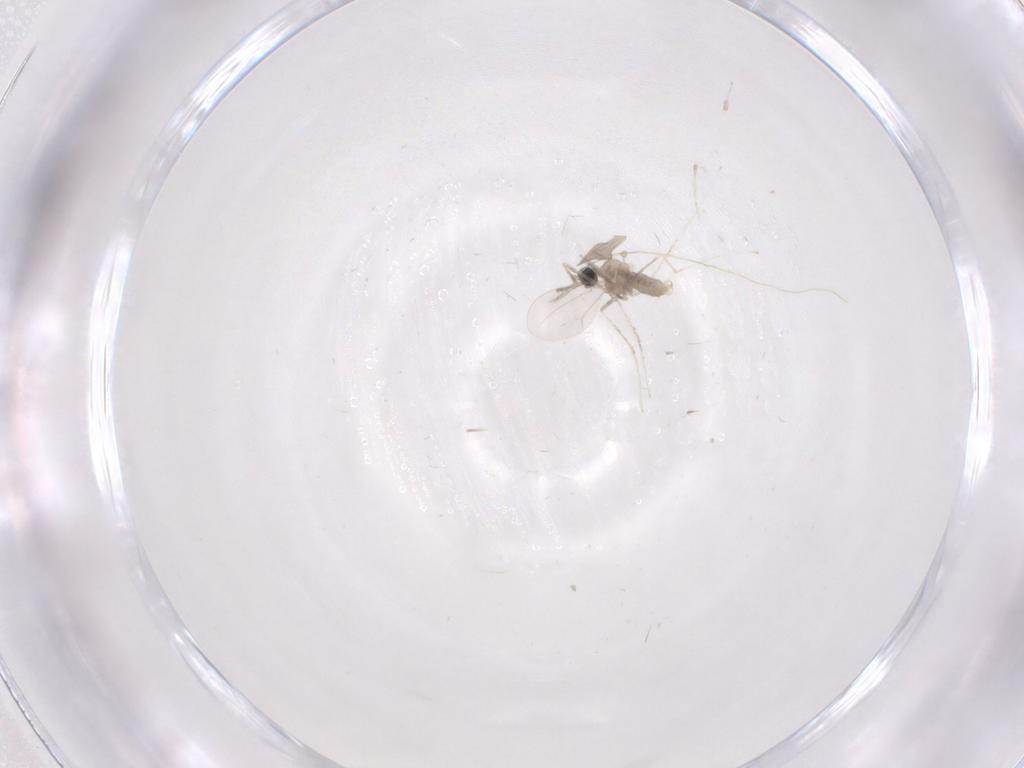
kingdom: Animalia
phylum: Arthropoda
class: Insecta
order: Diptera
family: Cecidomyiidae
